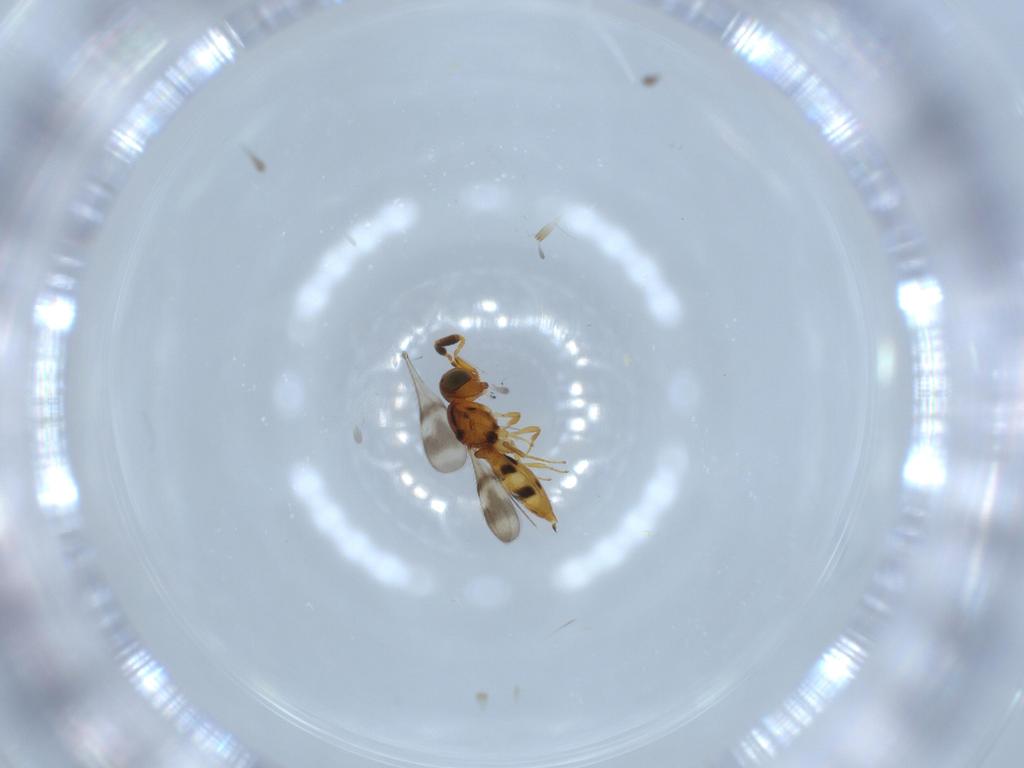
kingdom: Animalia
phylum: Arthropoda
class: Insecta
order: Hymenoptera
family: Scelionidae
